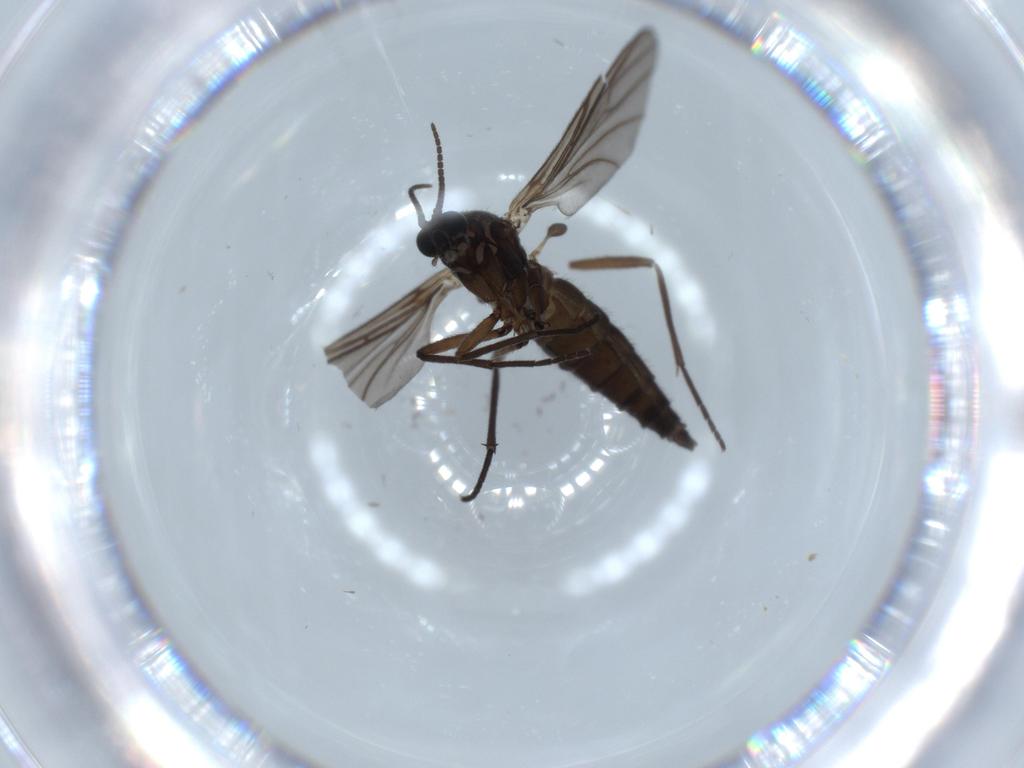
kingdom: Animalia
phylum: Arthropoda
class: Insecta
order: Diptera
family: Sciaridae
